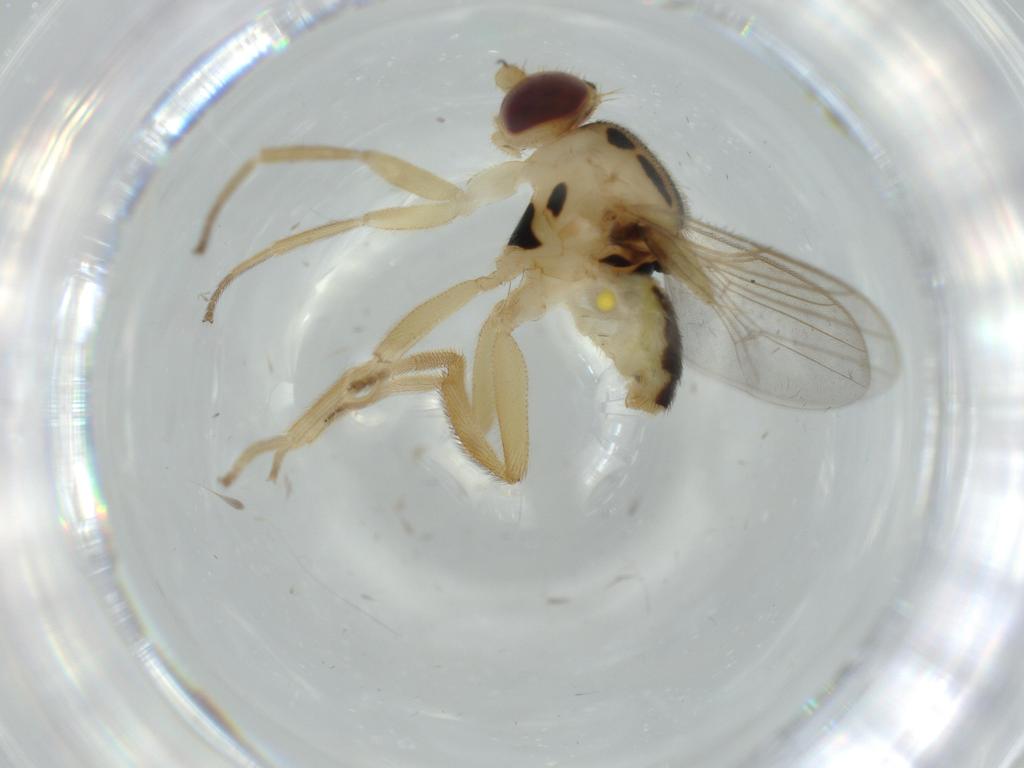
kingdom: Animalia
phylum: Arthropoda
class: Insecta
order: Diptera
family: Chloropidae
